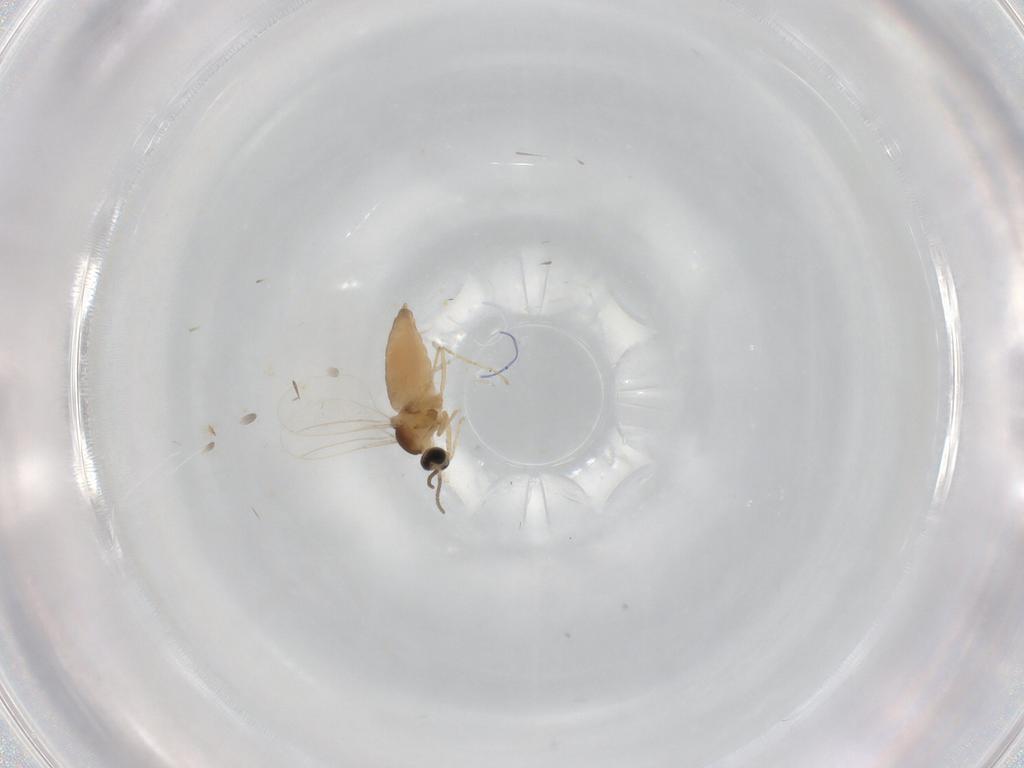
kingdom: Animalia
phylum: Arthropoda
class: Insecta
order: Diptera
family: Cecidomyiidae
